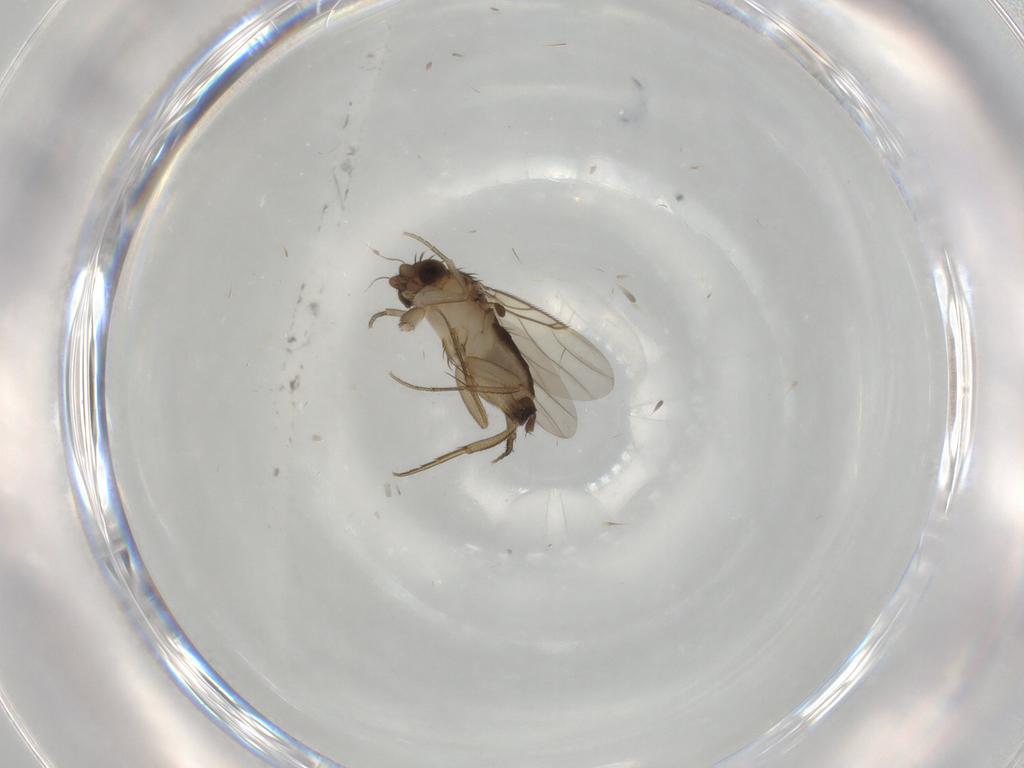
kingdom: Animalia
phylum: Arthropoda
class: Insecta
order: Diptera
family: Phoridae
